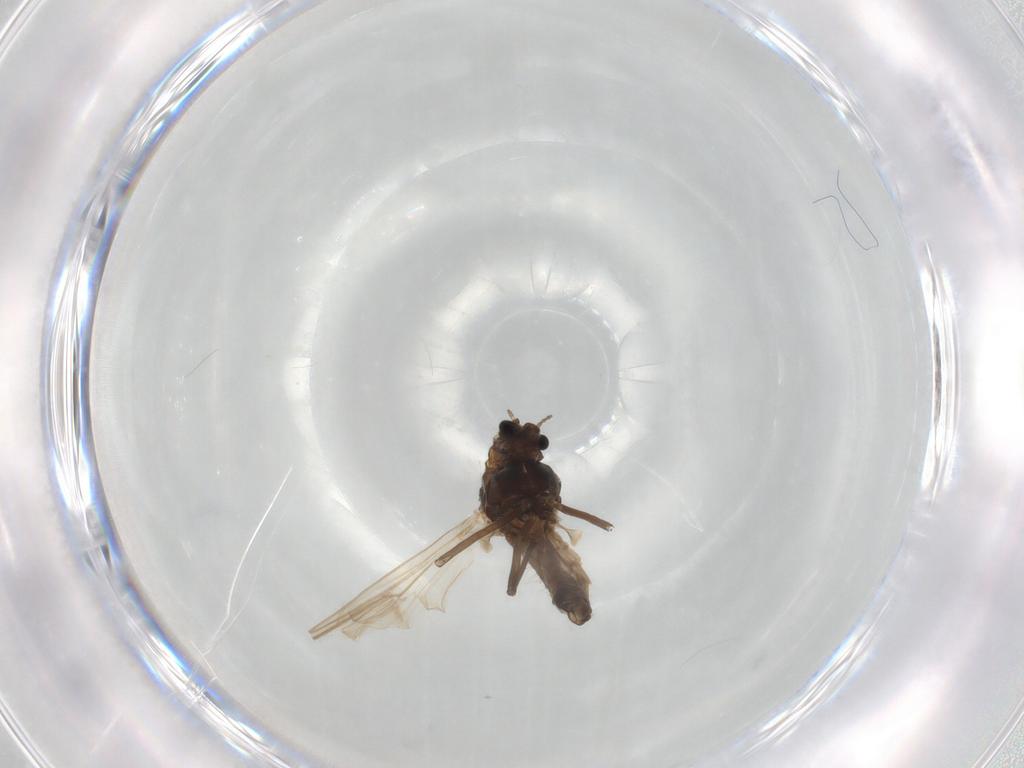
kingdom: Animalia
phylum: Arthropoda
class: Insecta
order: Diptera
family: Chironomidae
